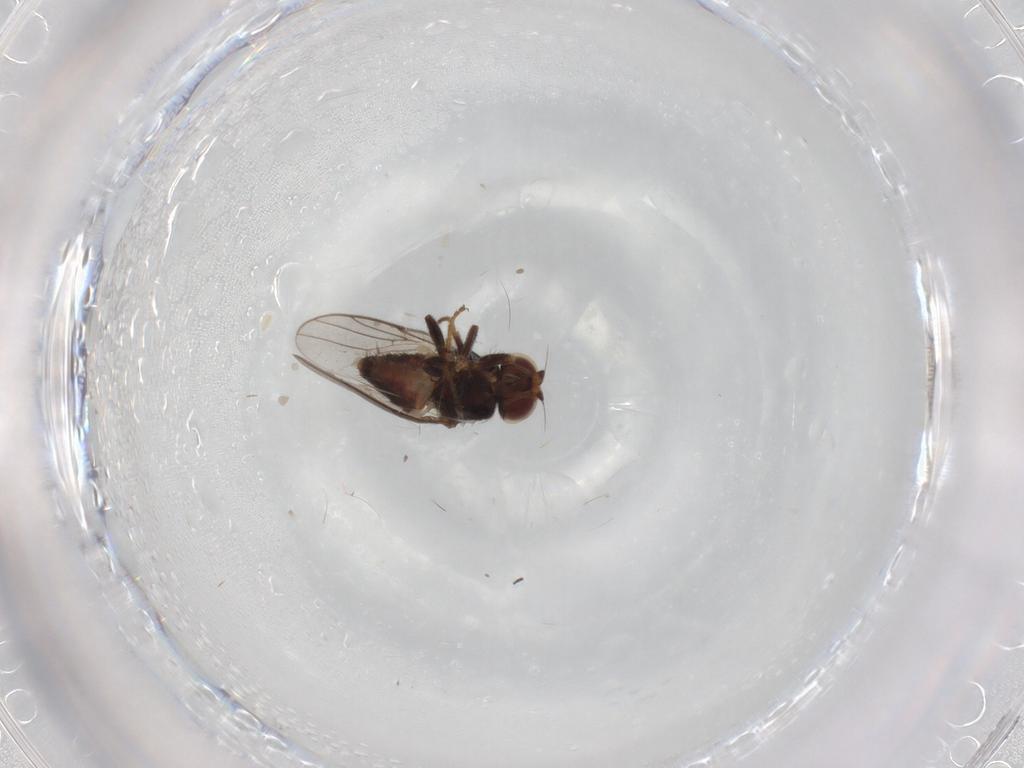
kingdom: Animalia
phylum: Arthropoda
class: Insecta
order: Diptera
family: Chloropidae
